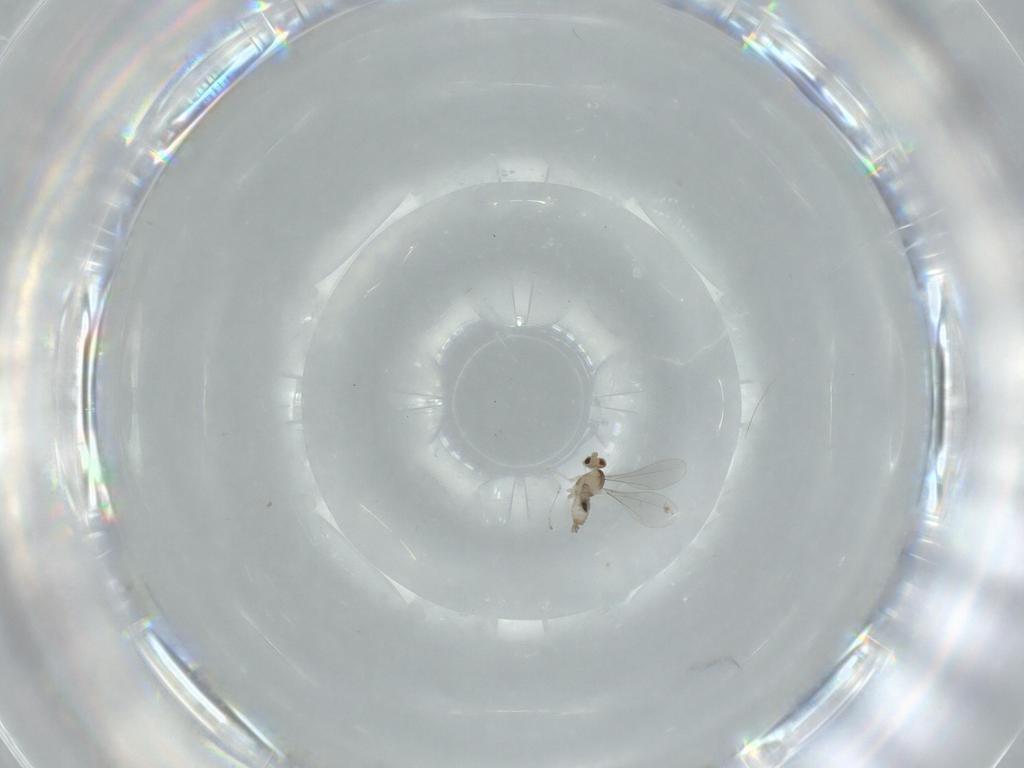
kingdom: Animalia
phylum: Arthropoda
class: Insecta
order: Diptera
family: Phoridae
